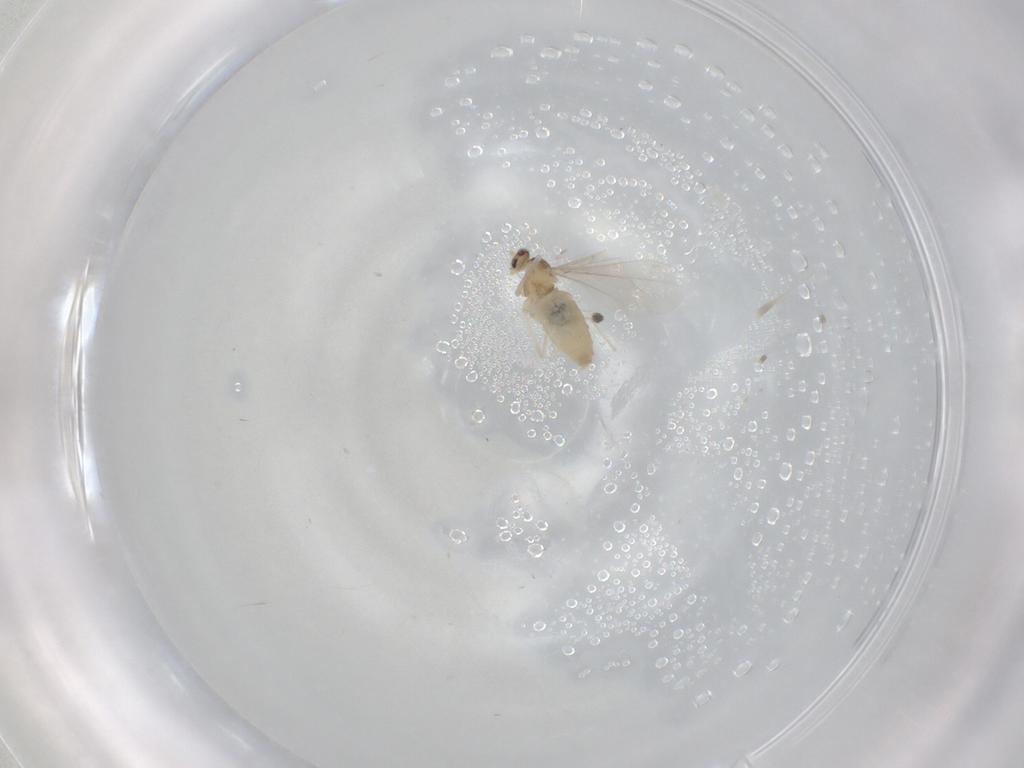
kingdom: Animalia
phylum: Arthropoda
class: Insecta
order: Diptera
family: Cecidomyiidae
